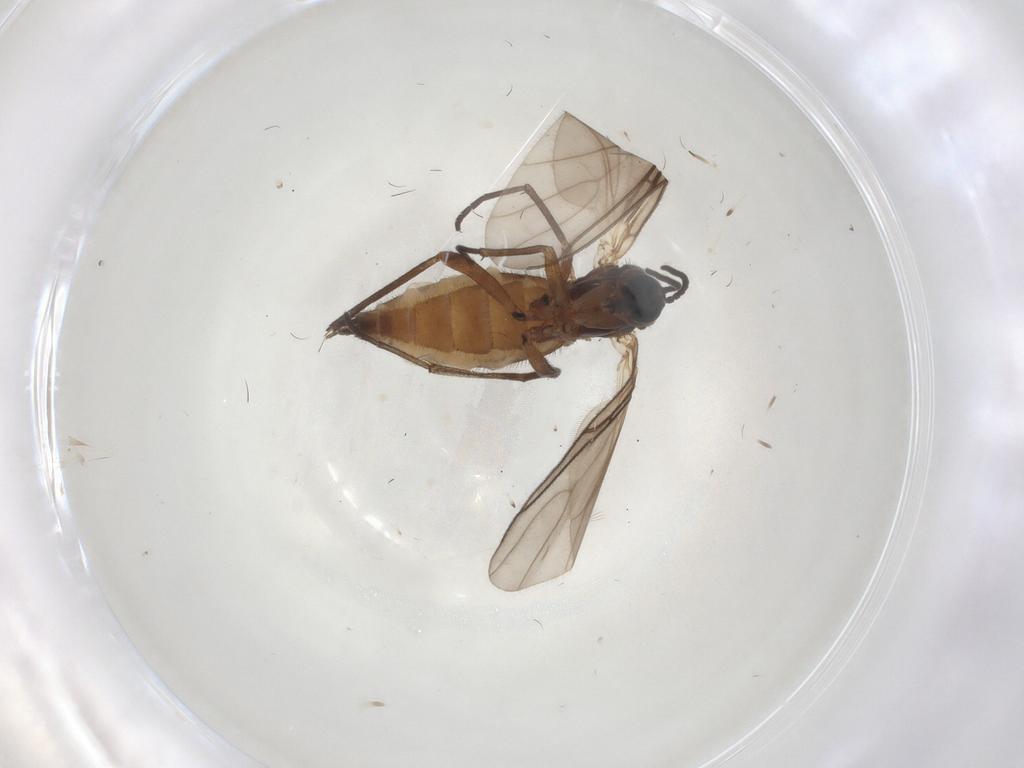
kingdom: Animalia
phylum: Arthropoda
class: Insecta
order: Diptera
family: Sciaridae
